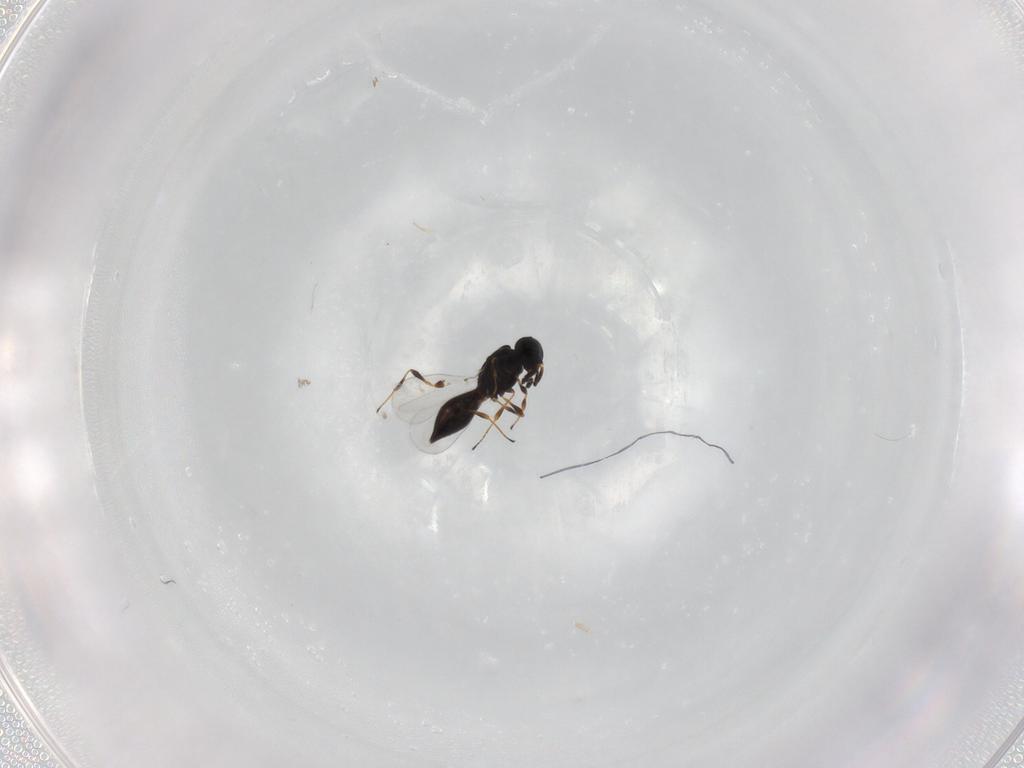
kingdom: Animalia
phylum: Arthropoda
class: Insecta
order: Hymenoptera
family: Platygastridae
